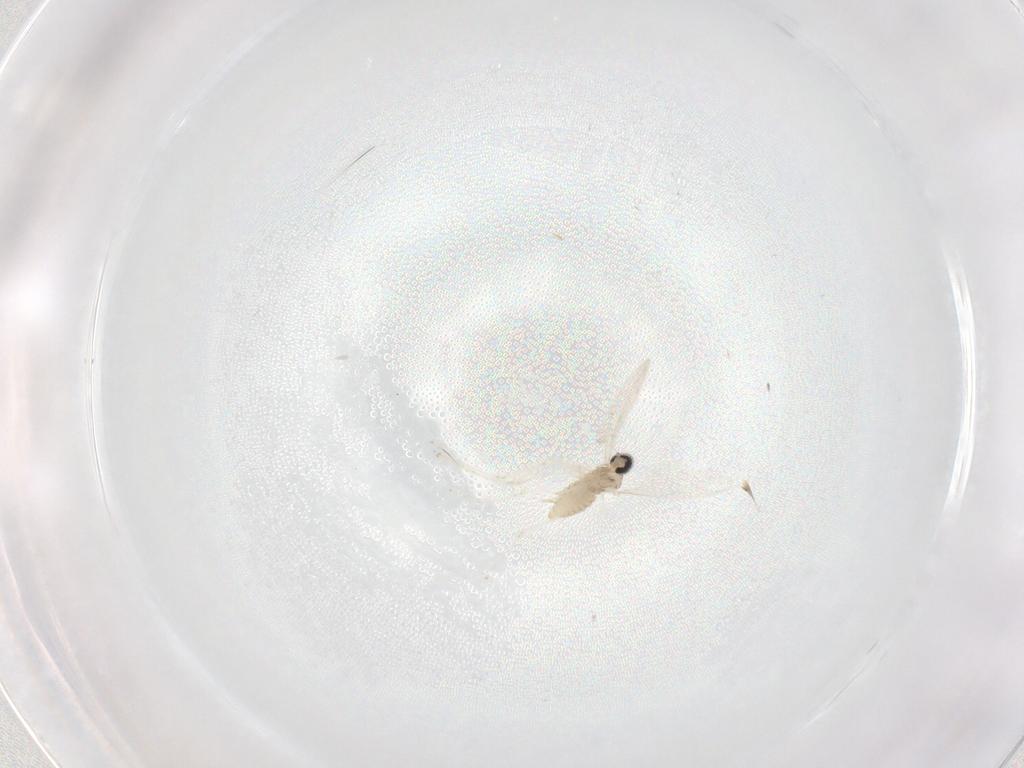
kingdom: Animalia
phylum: Arthropoda
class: Insecta
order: Diptera
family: Cecidomyiidae
